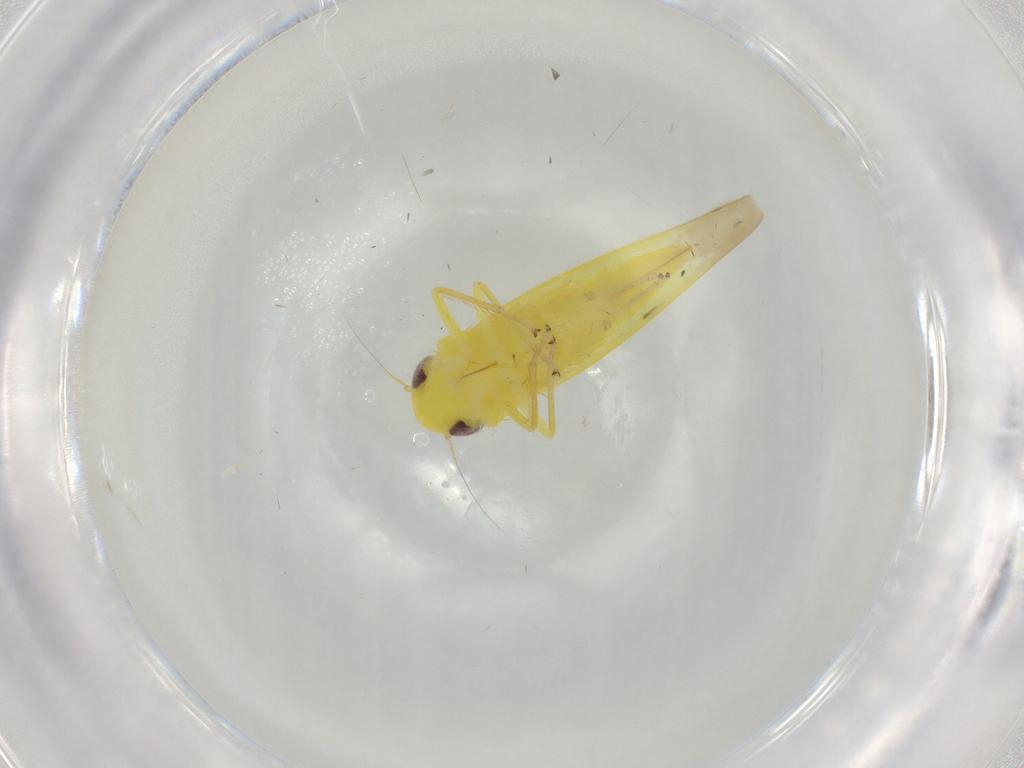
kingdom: Animalia
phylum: Arthropoda
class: Insecta
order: Hemiptera
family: Cicadellidae
